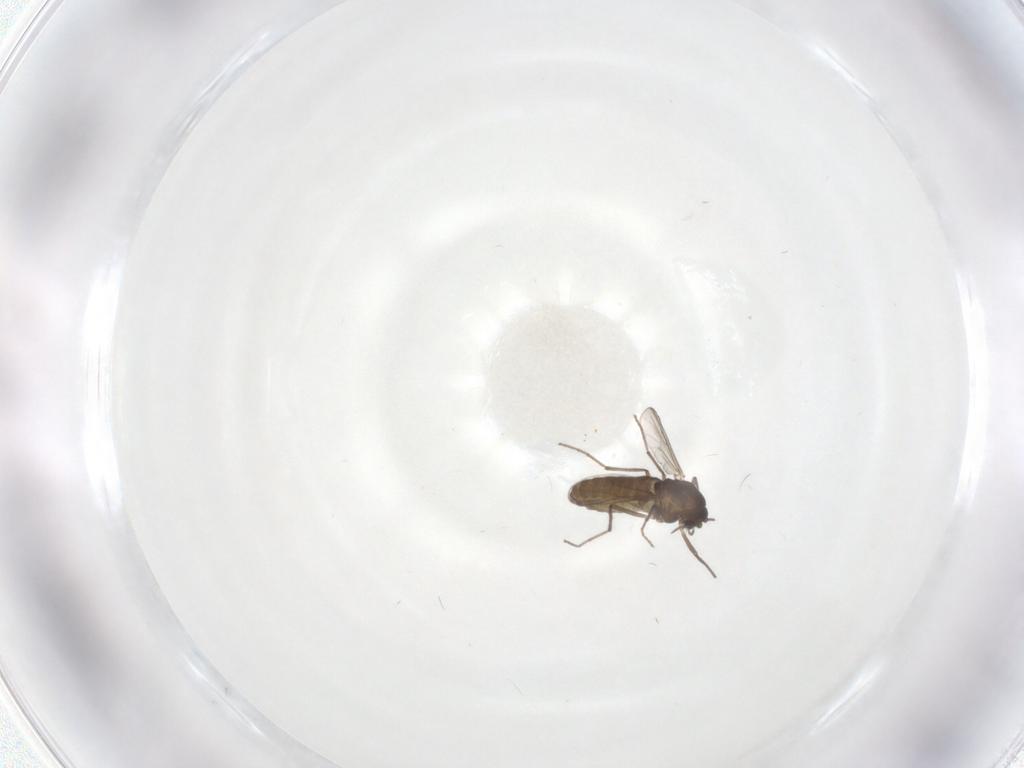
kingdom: Animalia
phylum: Arthropoda
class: Insecta
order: Diptera
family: Chironomidae
